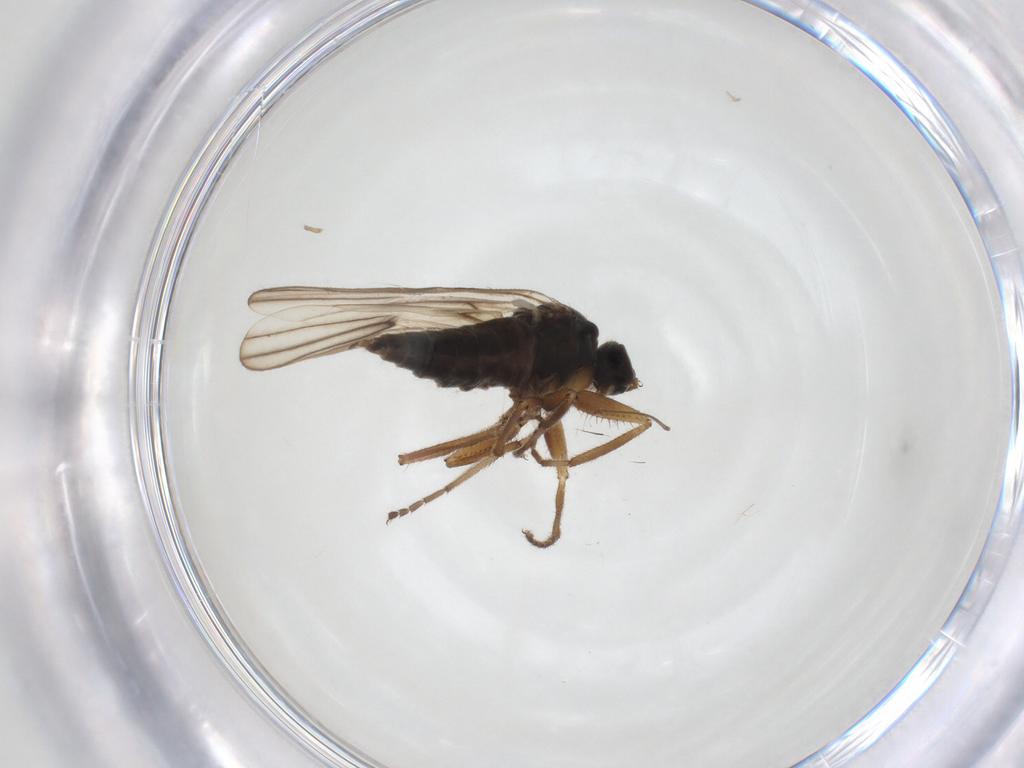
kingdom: Animalia
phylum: Arthropoda
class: Insecta
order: Diptera
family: Hybotidae
